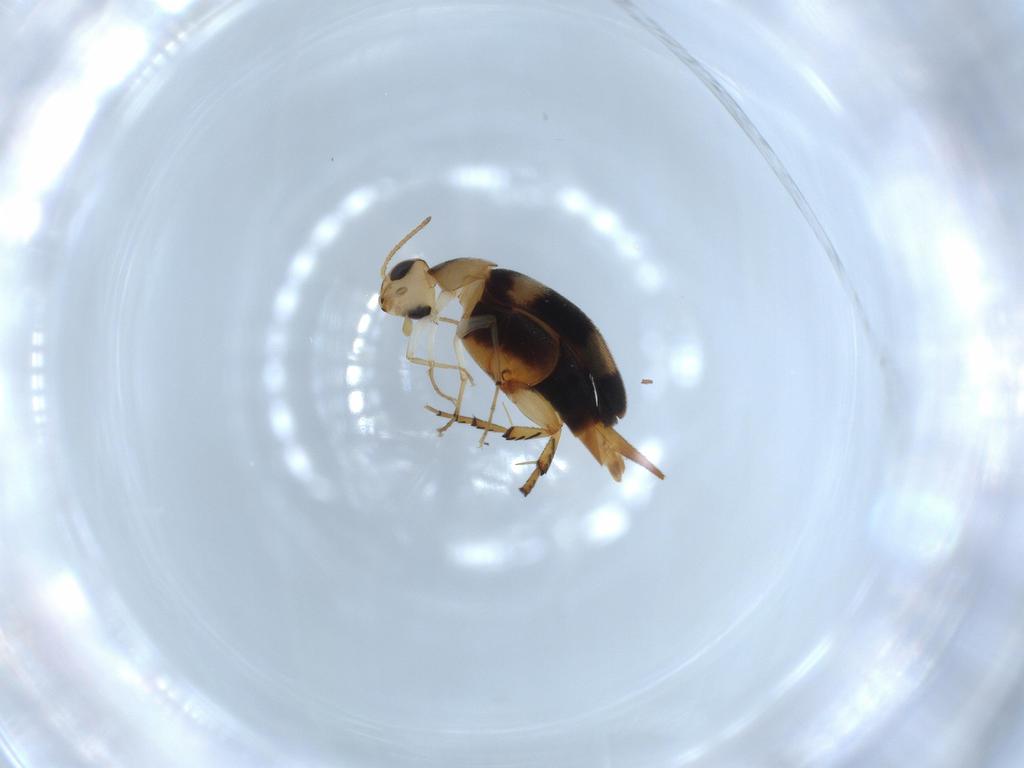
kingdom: Animalia
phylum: Arthropoda
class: Insecta
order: Coleoptera
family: Mordellidae
